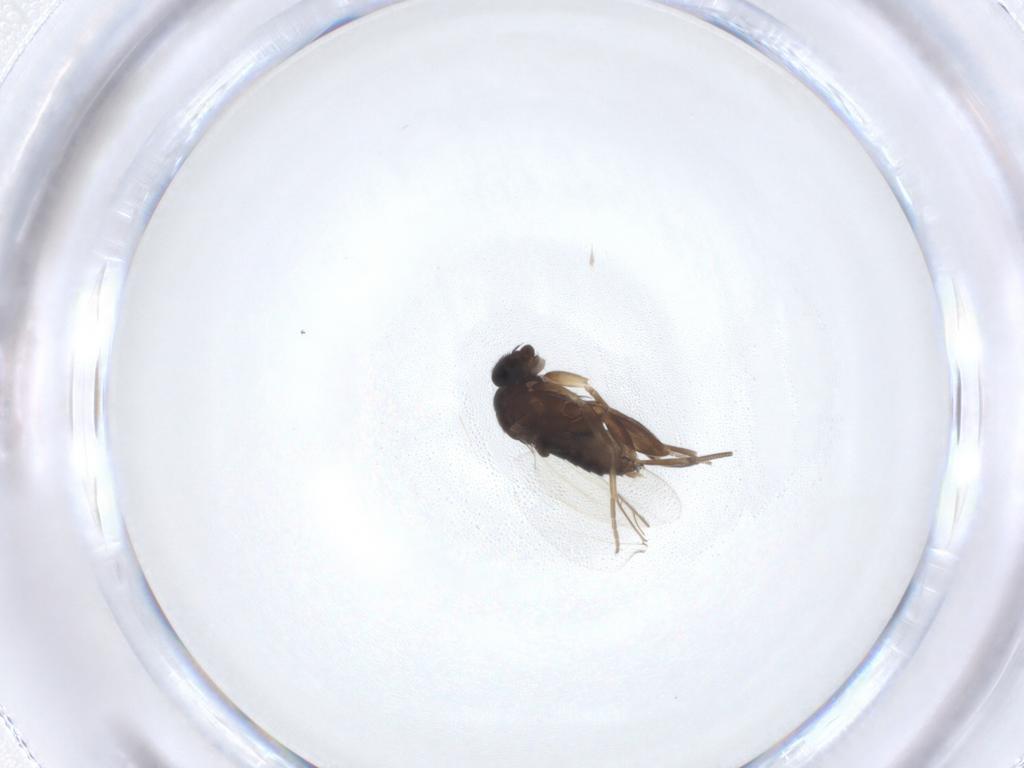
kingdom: Animalia
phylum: Arthropoda
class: Insecta
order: Diptera
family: Phoridae
